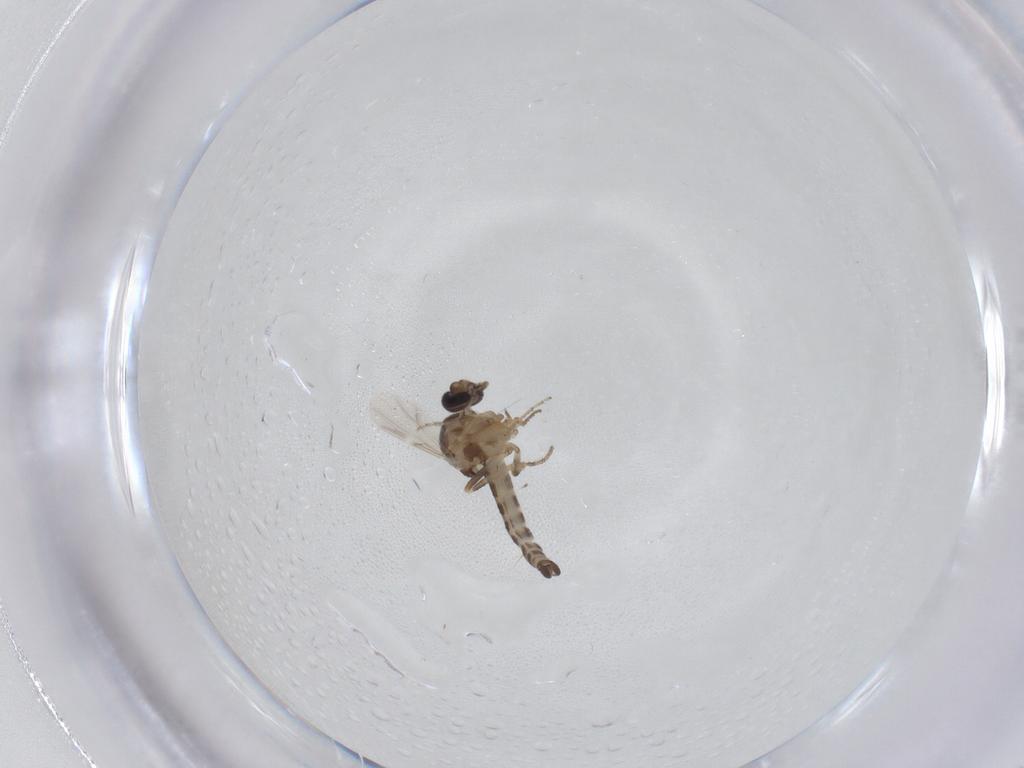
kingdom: Animalia
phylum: Arthropoda
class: Insecta
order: Diptera
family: Ceratopogonidae
